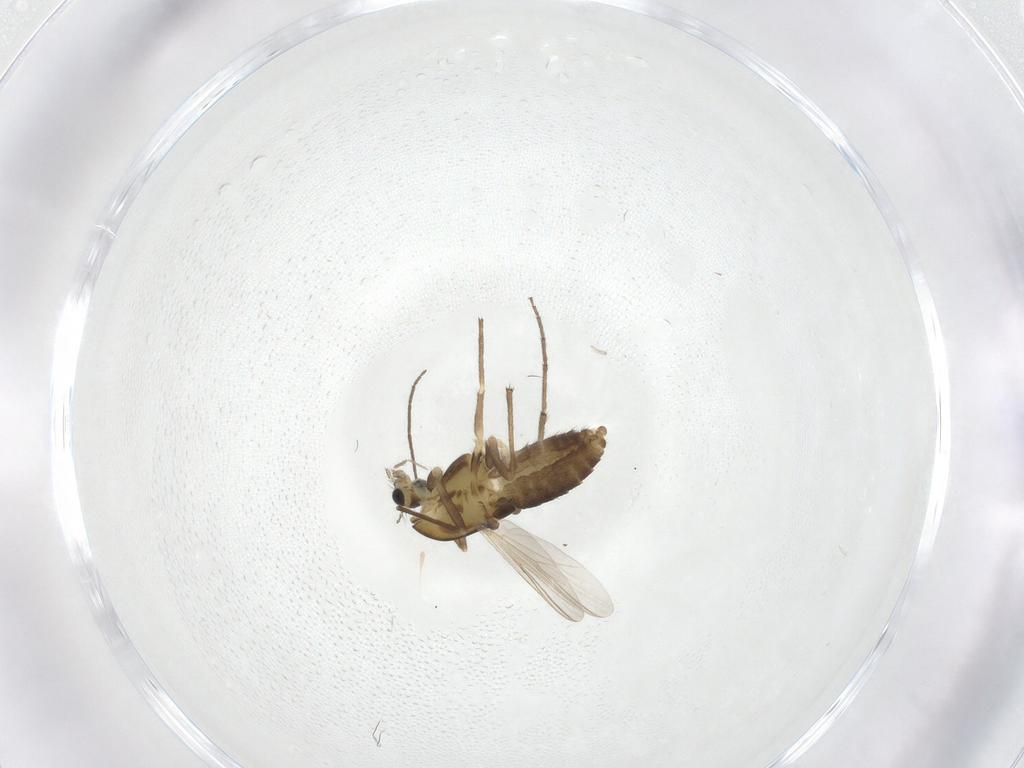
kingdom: Animalia
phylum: Arthropoda
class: Insecta
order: Diptera
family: Chironomidae
